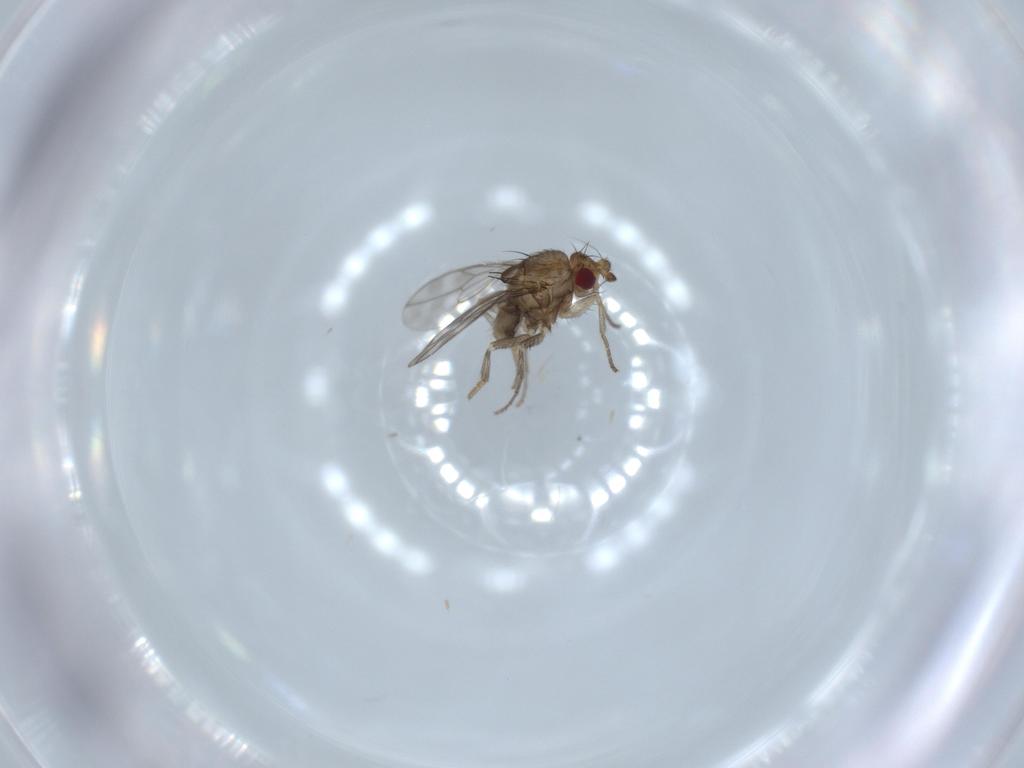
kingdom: Animalia
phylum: Arthropoda
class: Insecta
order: Diptera
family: Sphaeroceridae
